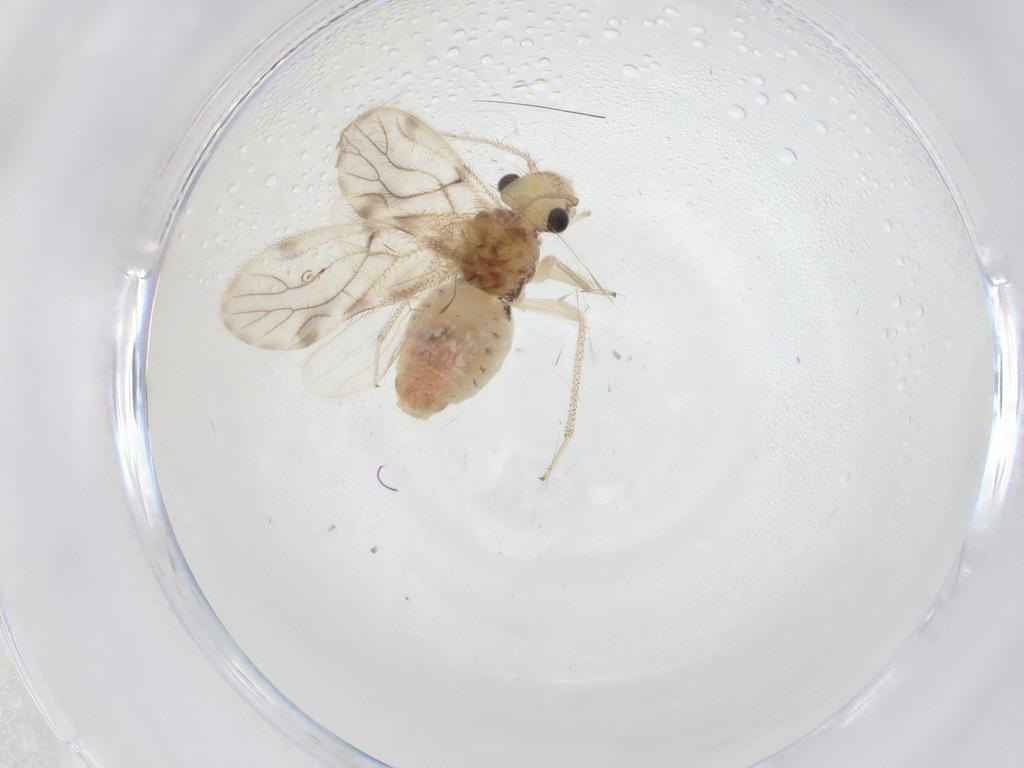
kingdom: Animalia
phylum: Arthropoda
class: Insecta
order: Psocodea
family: Pseudocaeciliidae
